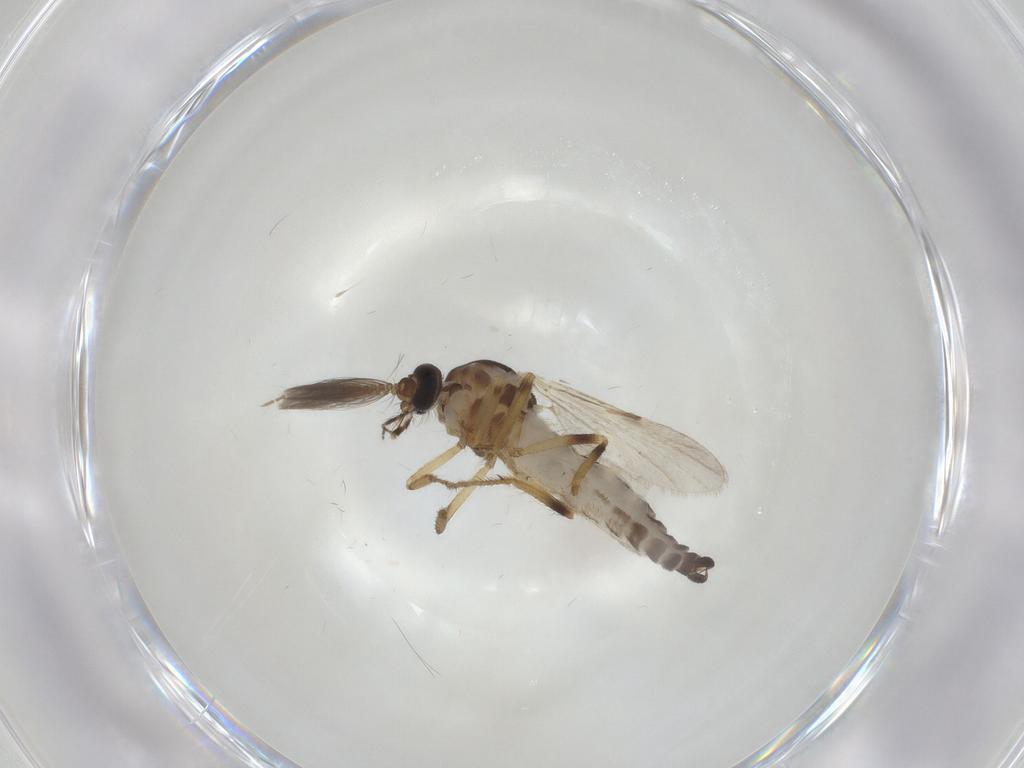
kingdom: Animalia
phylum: Arthropoda
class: Insecta
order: Diptera
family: Ceratopogonidae
